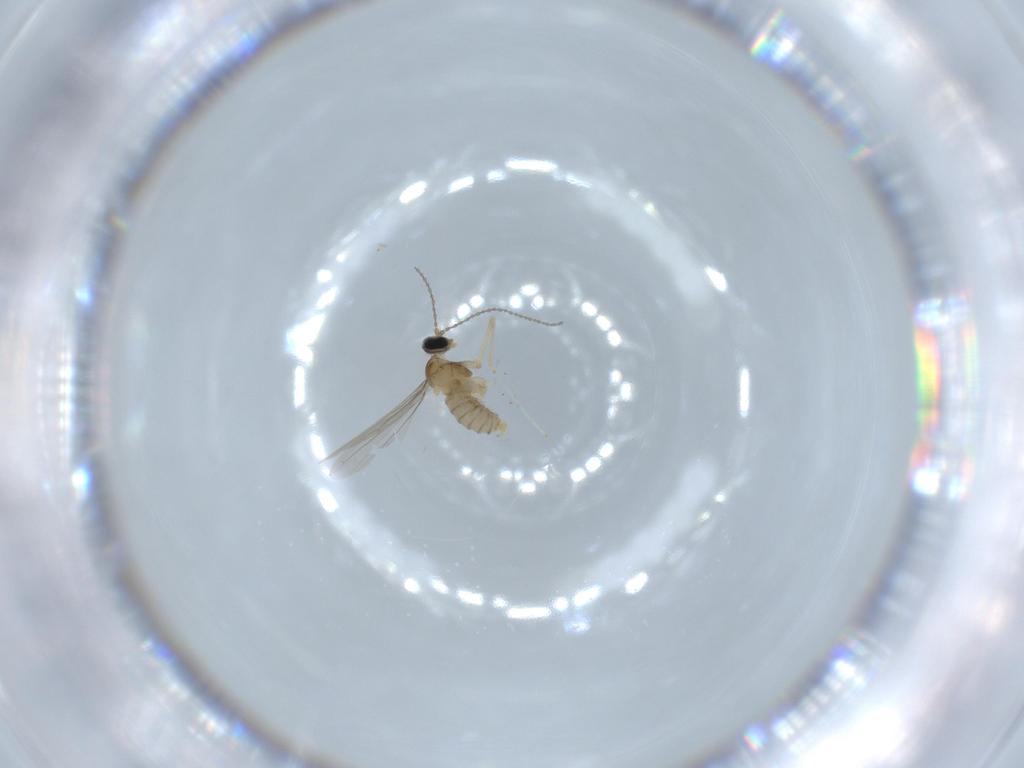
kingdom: Animalia
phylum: Arthropoda
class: Insecta
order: Diptera
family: Cecidomyiidae
